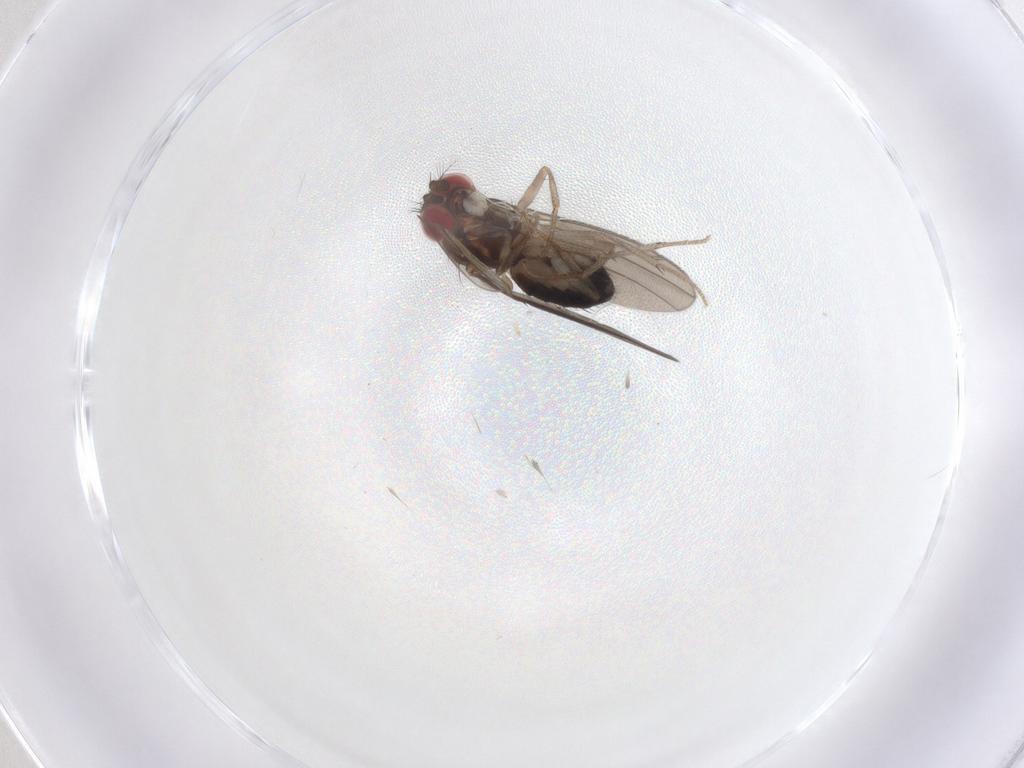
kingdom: Animalia
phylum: Arthropoda
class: Insecta
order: Diptera
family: Drosophilidae
